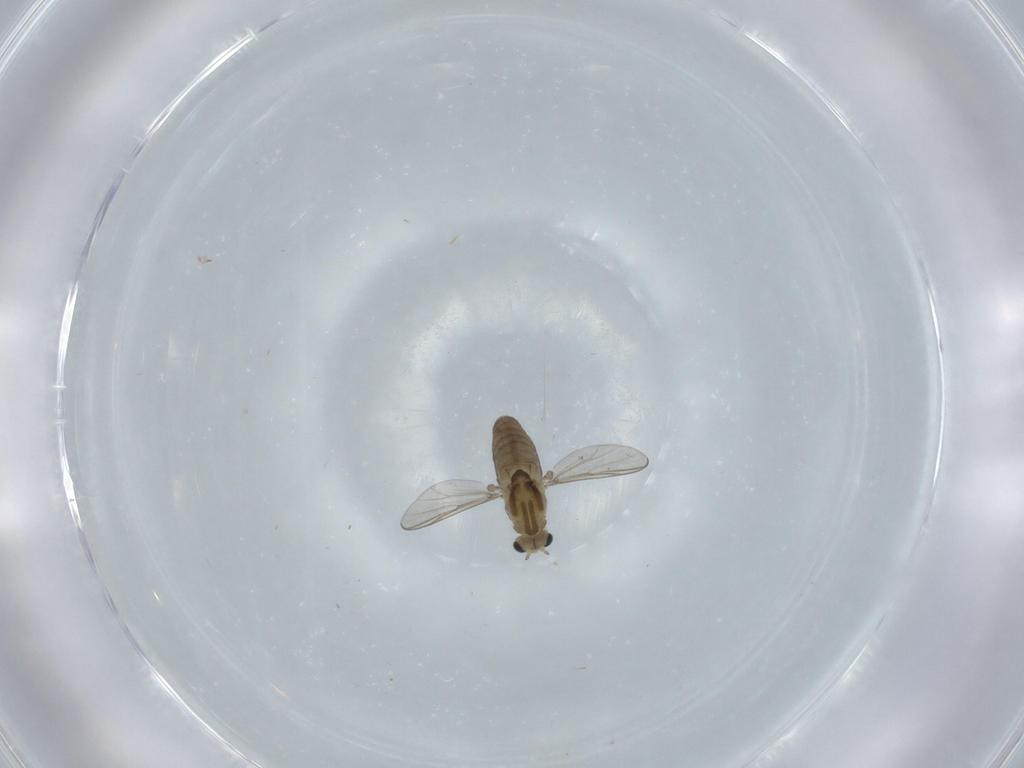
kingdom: Animalia
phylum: Arthropoda
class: Insecta
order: Diptera
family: Chironomidae
